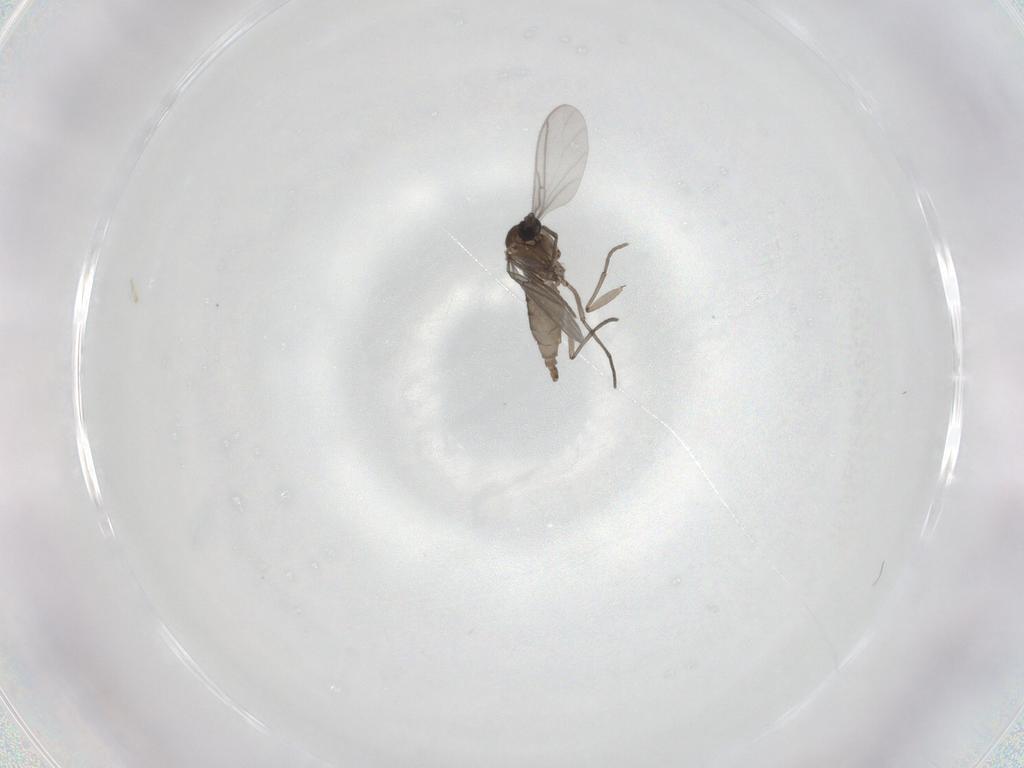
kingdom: Animalia
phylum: Arthropoda
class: Insecta
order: Diptera
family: Sciaridae
